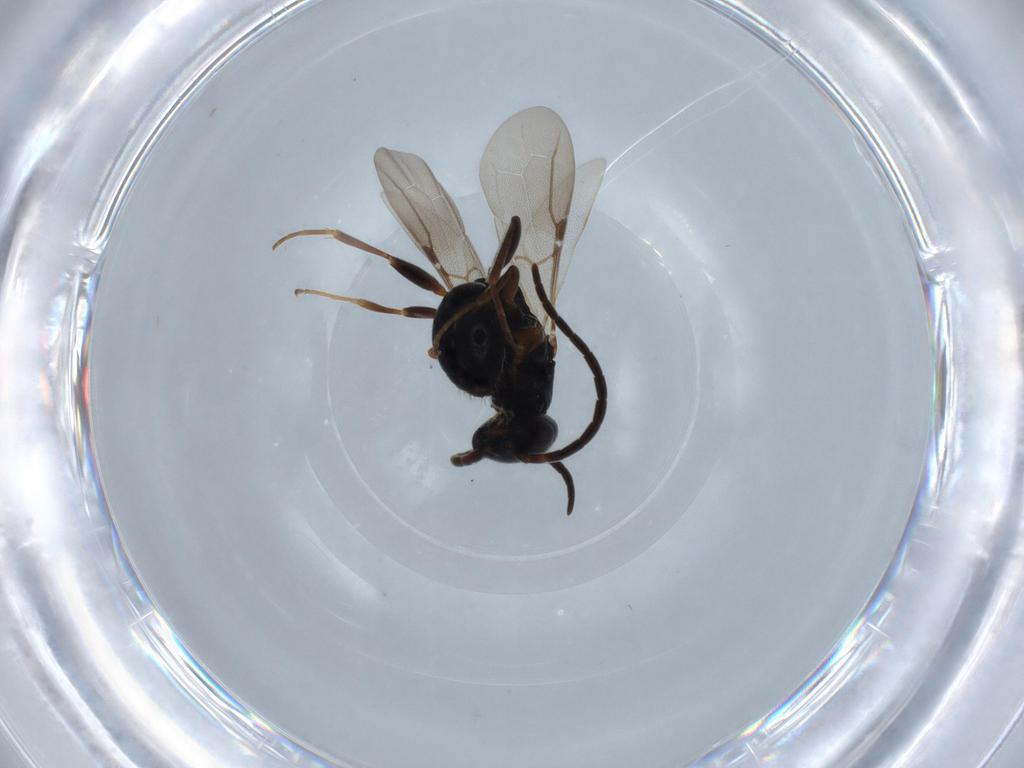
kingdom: Animalia
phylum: Arthropoda
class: Insecta
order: Hymenoptera
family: Bethylidae
